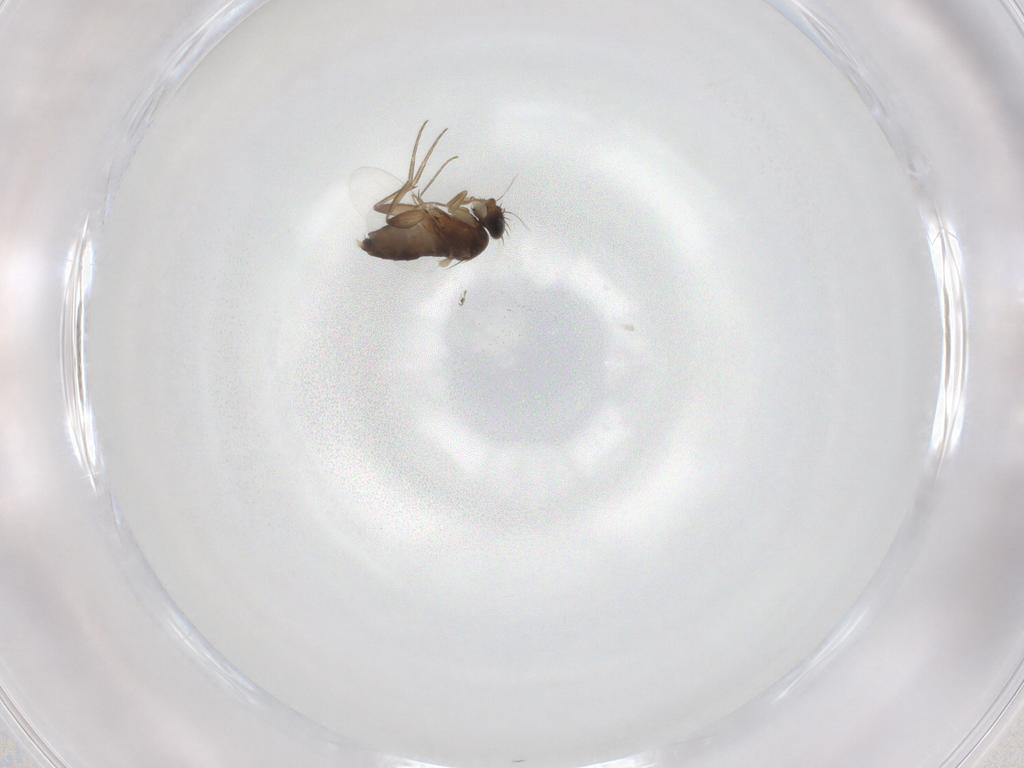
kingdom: Animalia
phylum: Arthropoda
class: Insecta
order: Diptera
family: Phoridae
